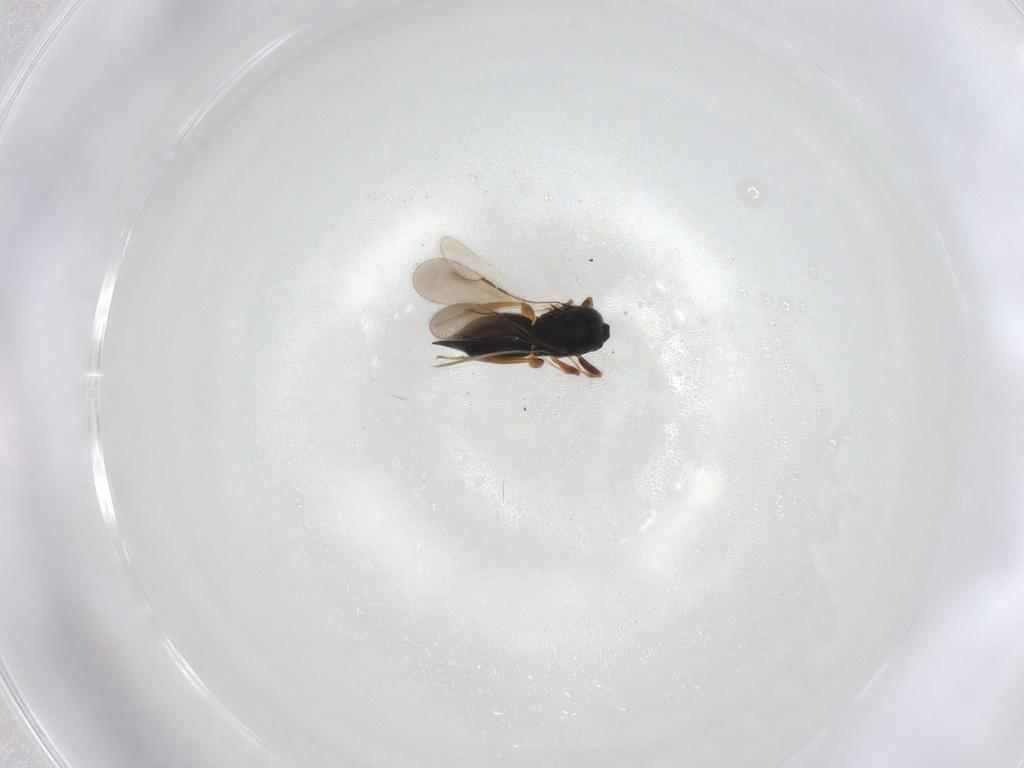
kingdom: Animalia
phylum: Arthropoda
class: Insecta
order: Hymenoptera
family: Ceraphronidae
